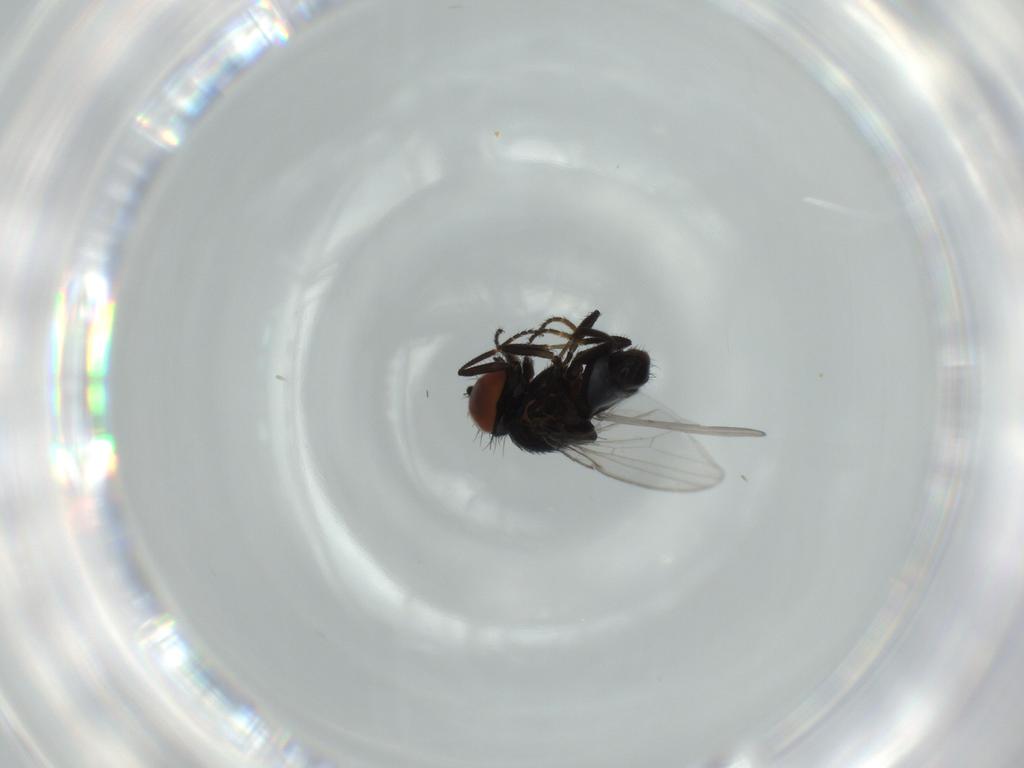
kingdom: Animalia
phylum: Arthropoda
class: Insecta
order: Diptera
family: Milichiidae
